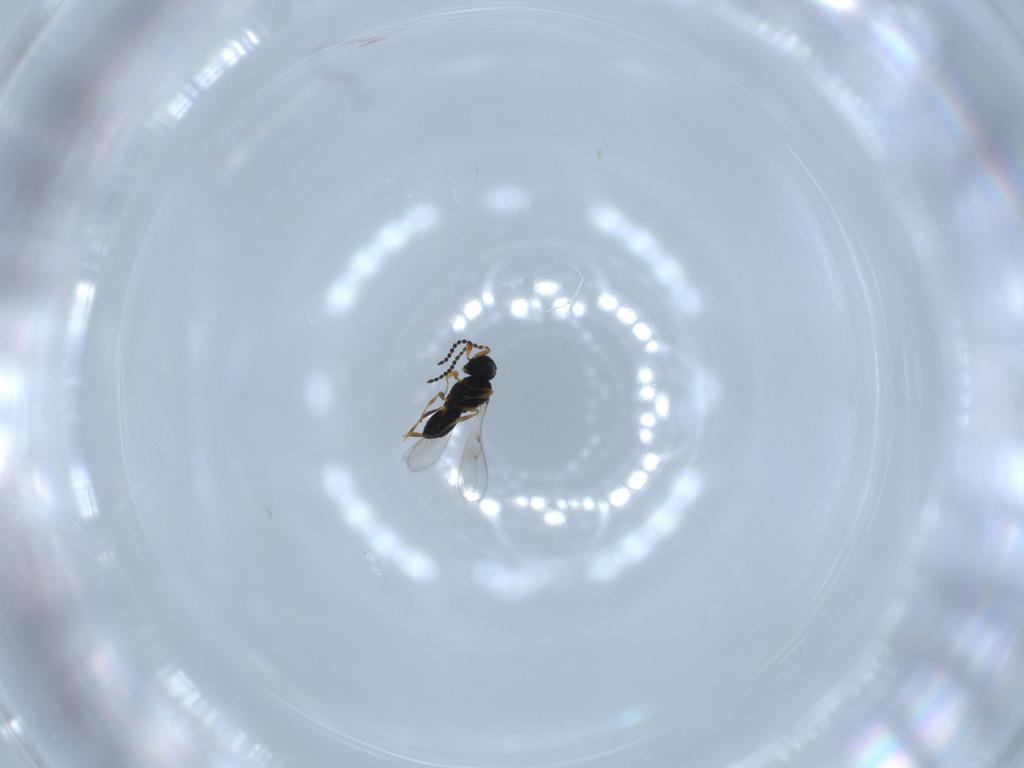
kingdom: Animalia
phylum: Arthropoda
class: Insecta
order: Hymenoptera
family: Scelionidae
